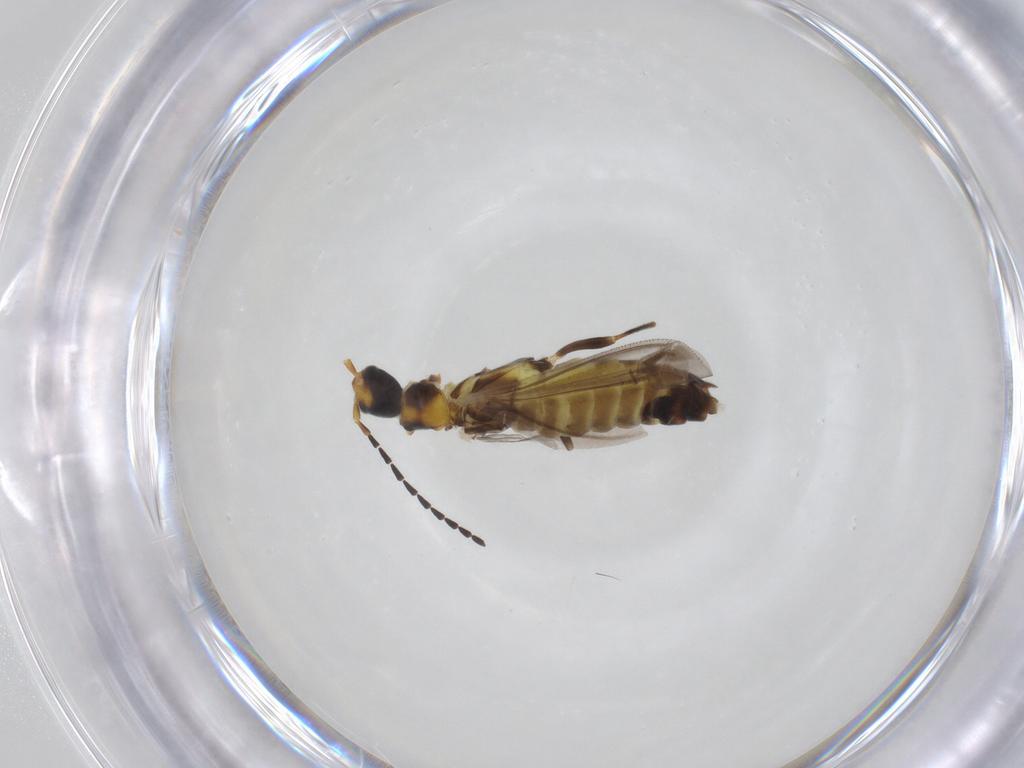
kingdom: Animalia
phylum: Arthropoda
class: Insecta
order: Coleoptera
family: Cantharidae
